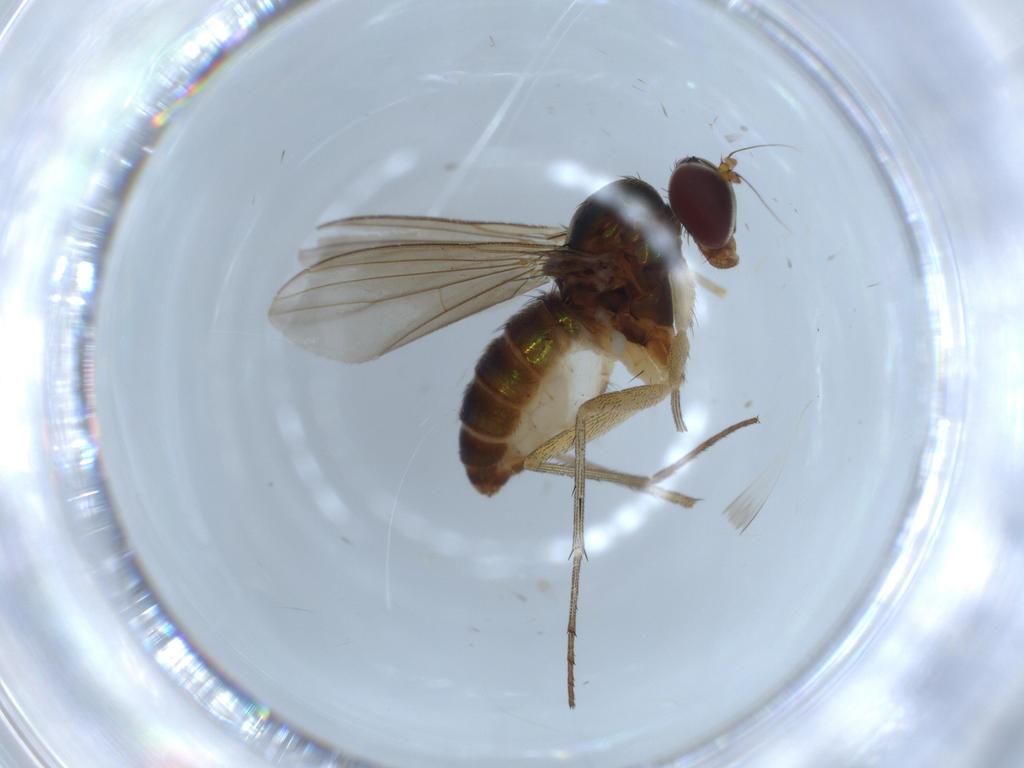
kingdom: Animalia
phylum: Arthropoda
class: Insecta
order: Diptera
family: Dolichopodidae
